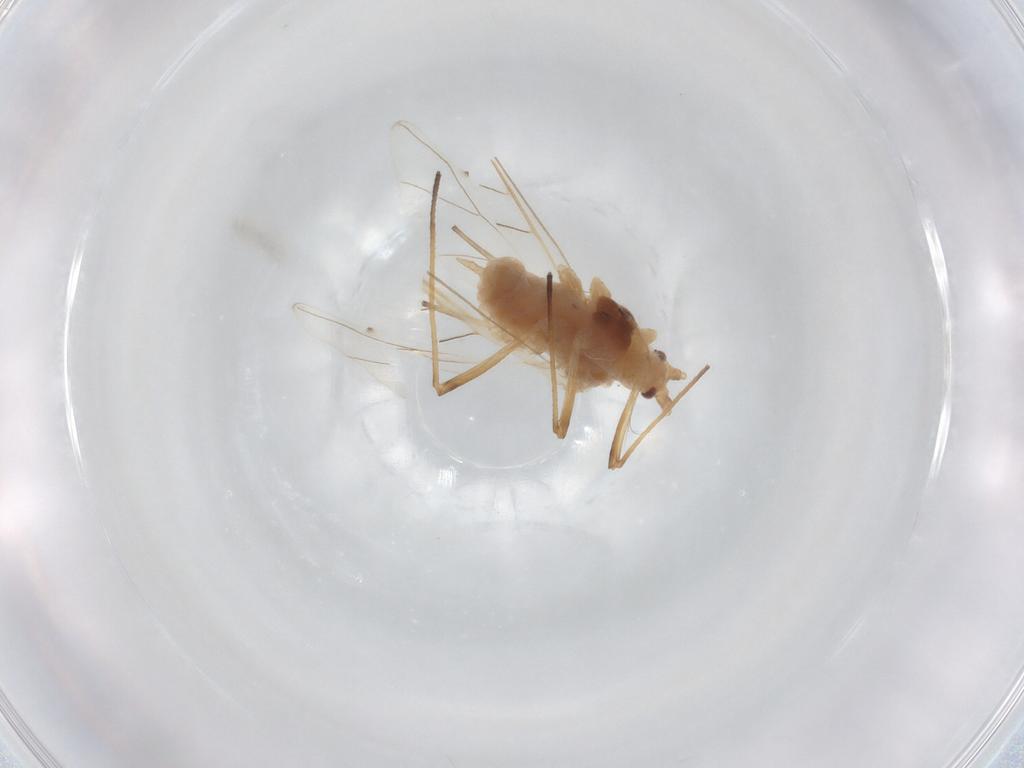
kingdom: Animalia
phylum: Arthropoda
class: Insecta
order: Hemiptera
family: Aphididae
